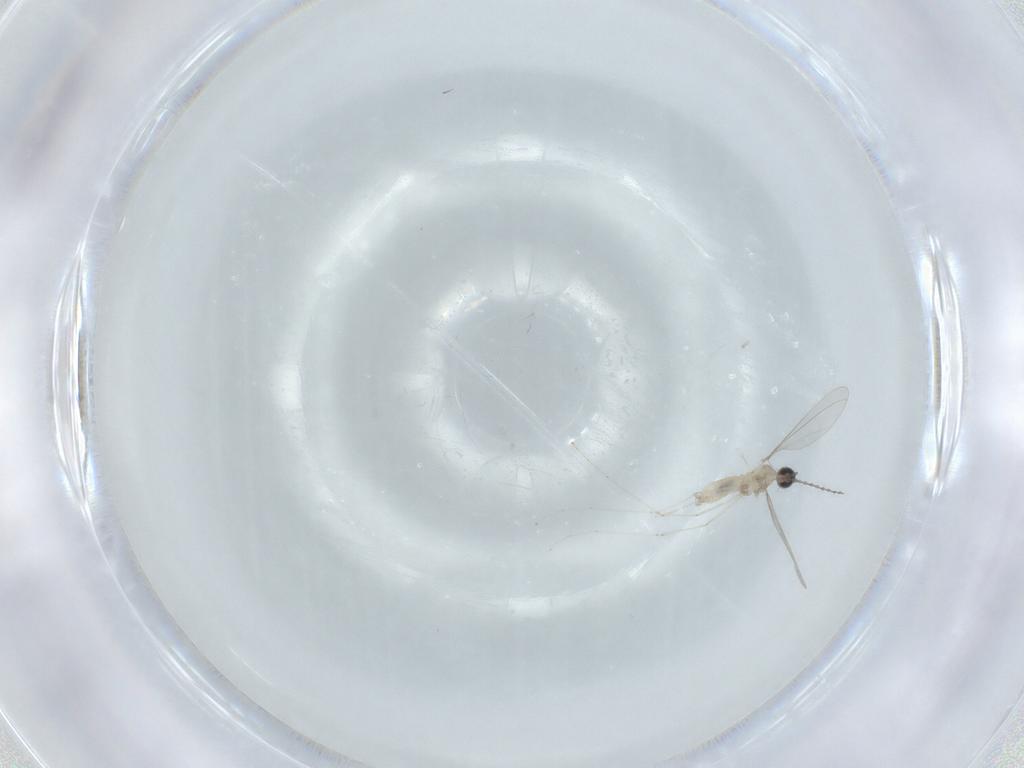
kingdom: Animalia
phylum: Arthropoda
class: Insecta
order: Diptera
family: Cecidomyiidae
